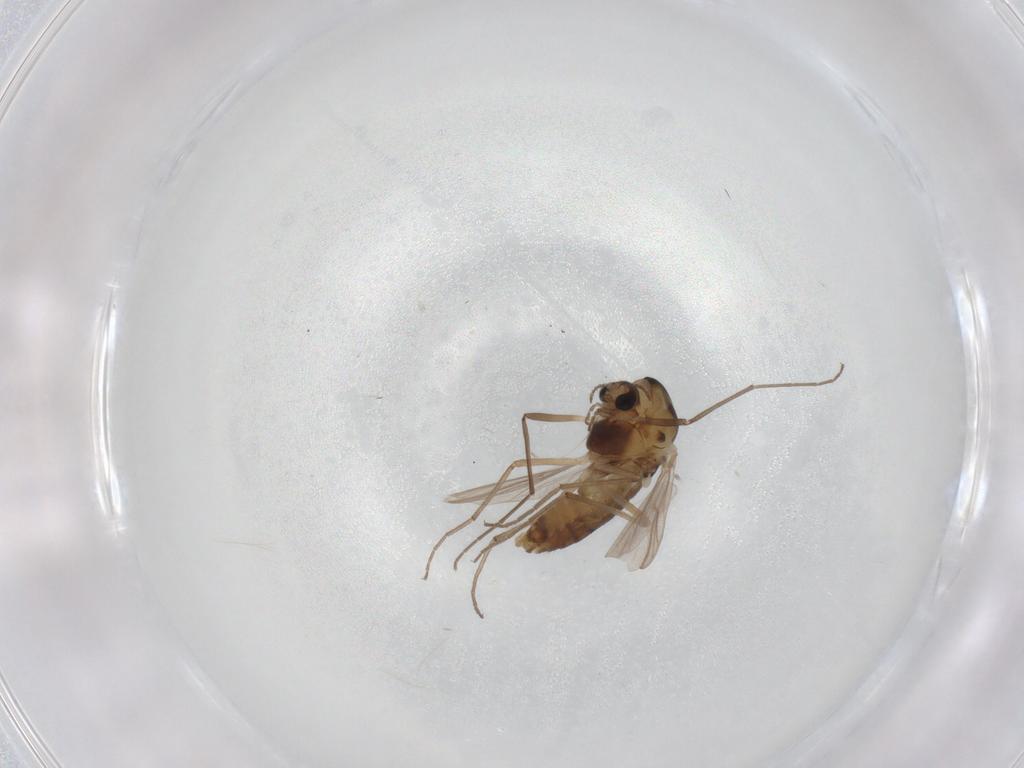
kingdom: Animalia
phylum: Arthropoda
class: Insecta
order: Diptera
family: Chironomidae
